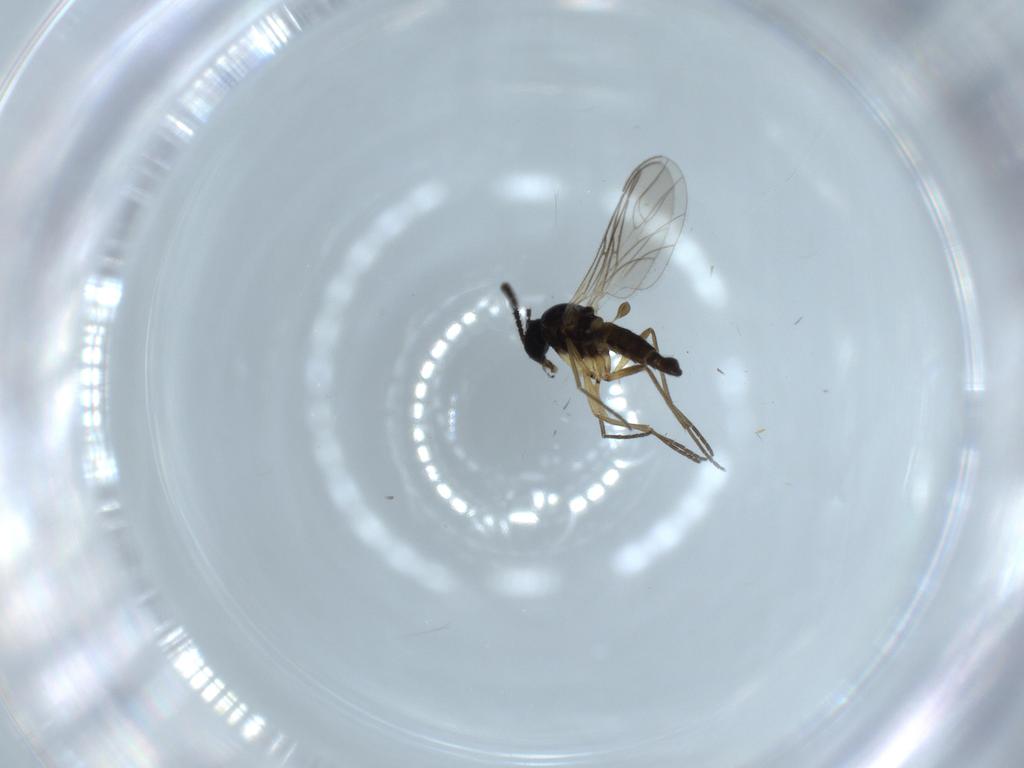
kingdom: Animalia
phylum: Arthropoda
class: Insecta
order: Diptera
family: Sciaridae
